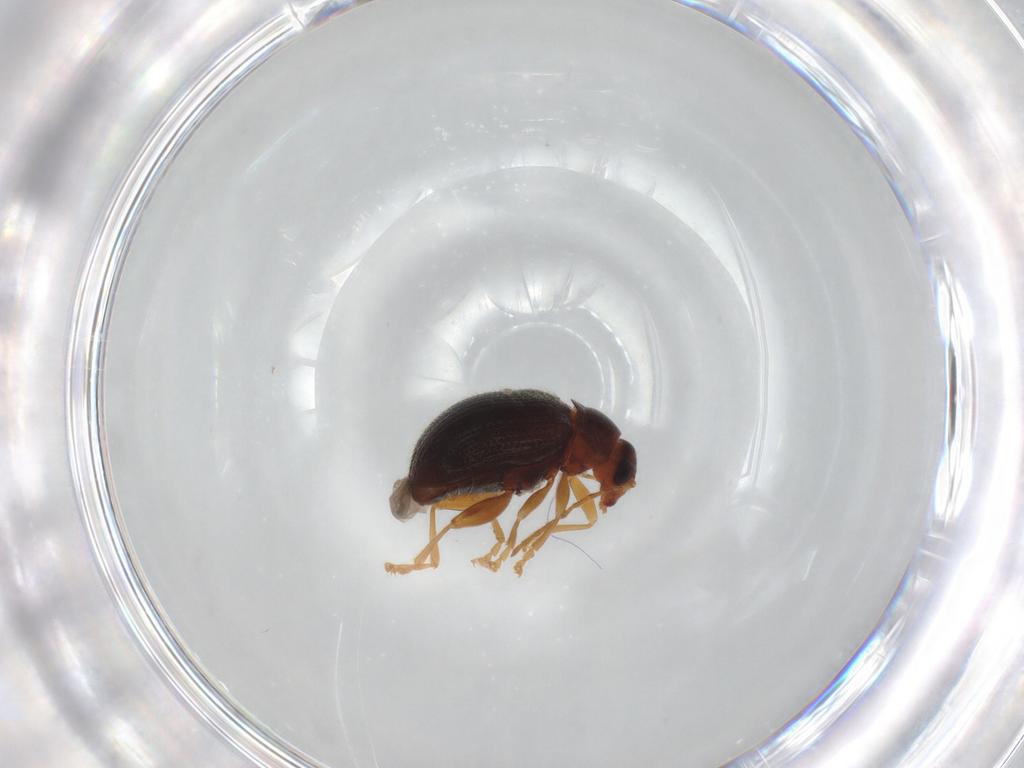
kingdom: Animalia
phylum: Arthropoda
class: Insecta
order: Coleoptera
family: Chrysomelidae
